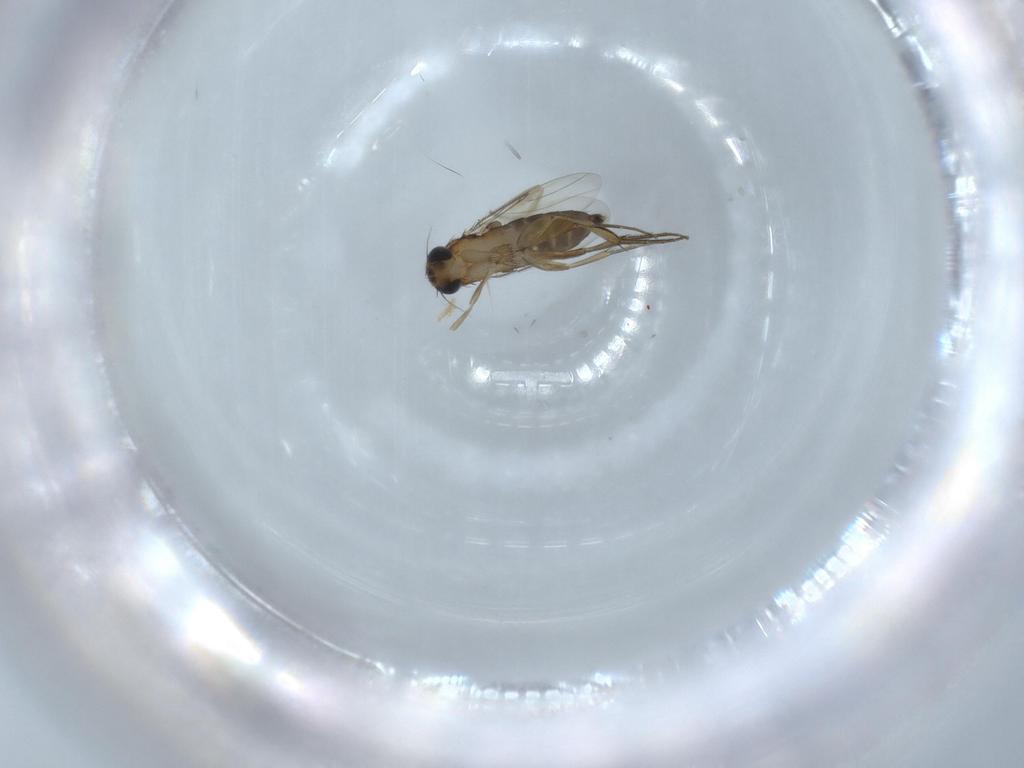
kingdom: Animalia
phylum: Arthropoda
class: Insecta
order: Diptera
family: Phoridae
